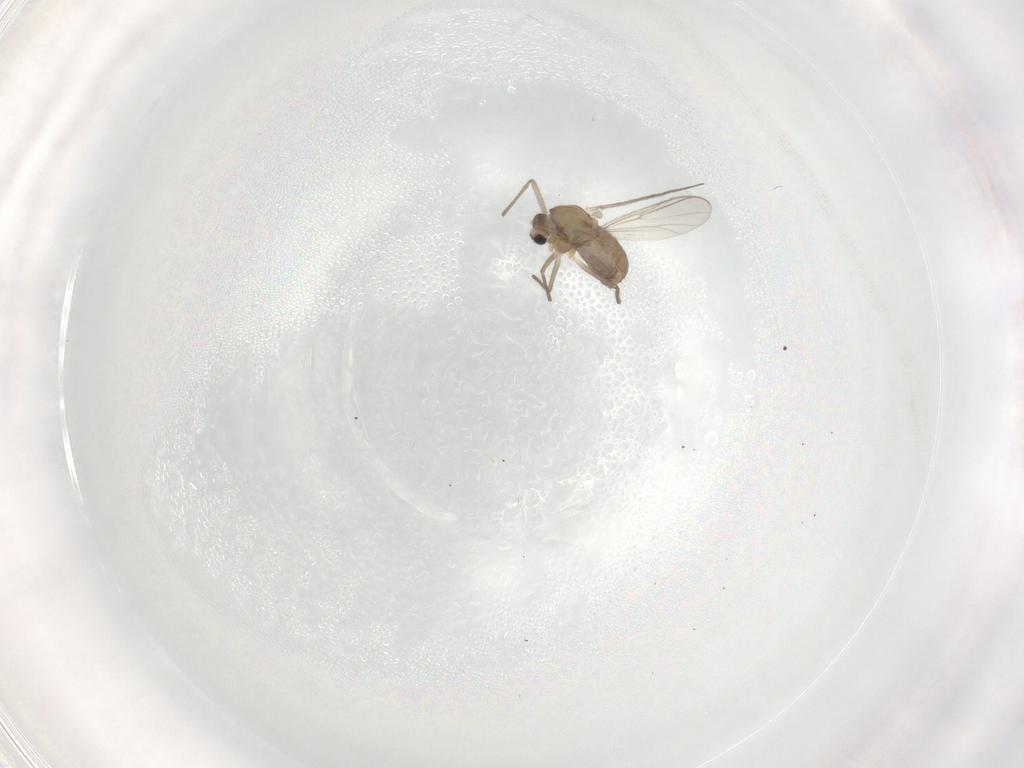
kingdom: Animalia
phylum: Arthropoda
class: Insecta
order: Diptera
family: Chironomidae
